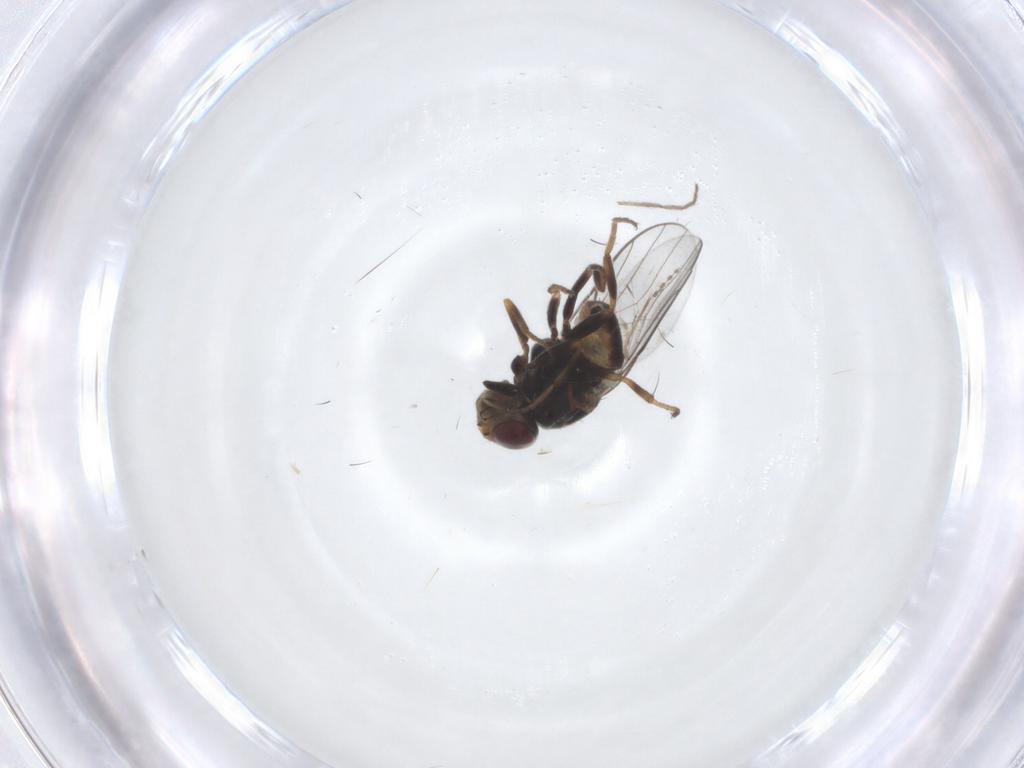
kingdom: Animalia
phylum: Arthropoda
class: Insecta
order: Diptera
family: Chloropidae
